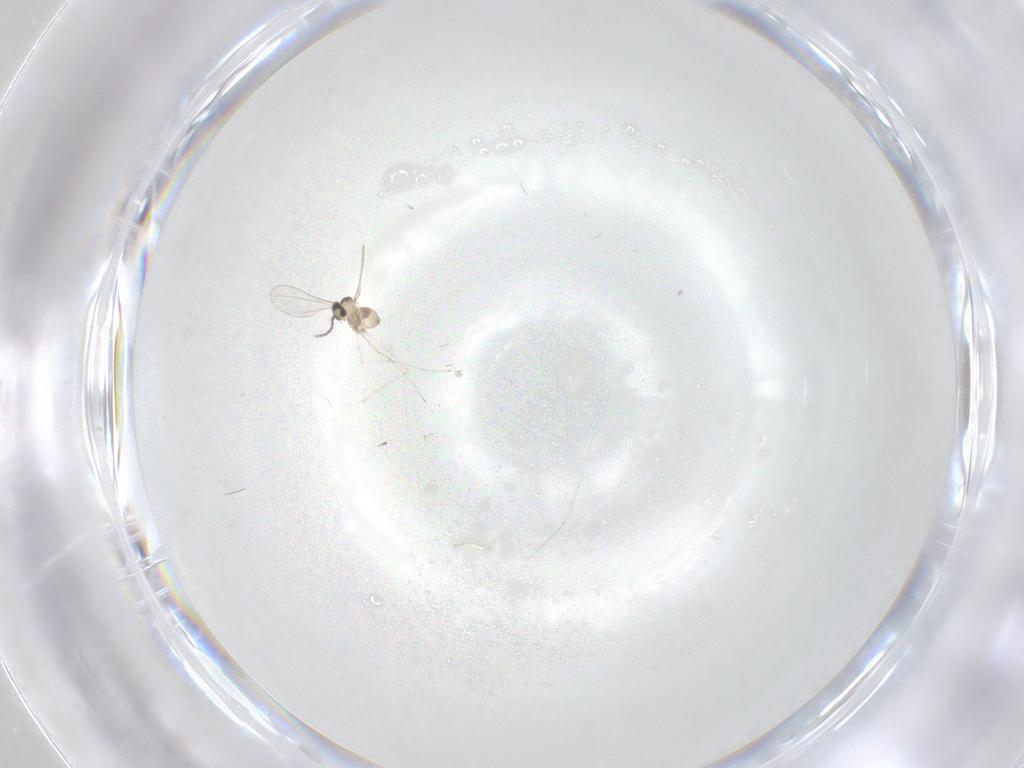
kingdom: Animalia
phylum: Arthropoda
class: Insecta
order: Diptera
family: Cecidomyiidae
